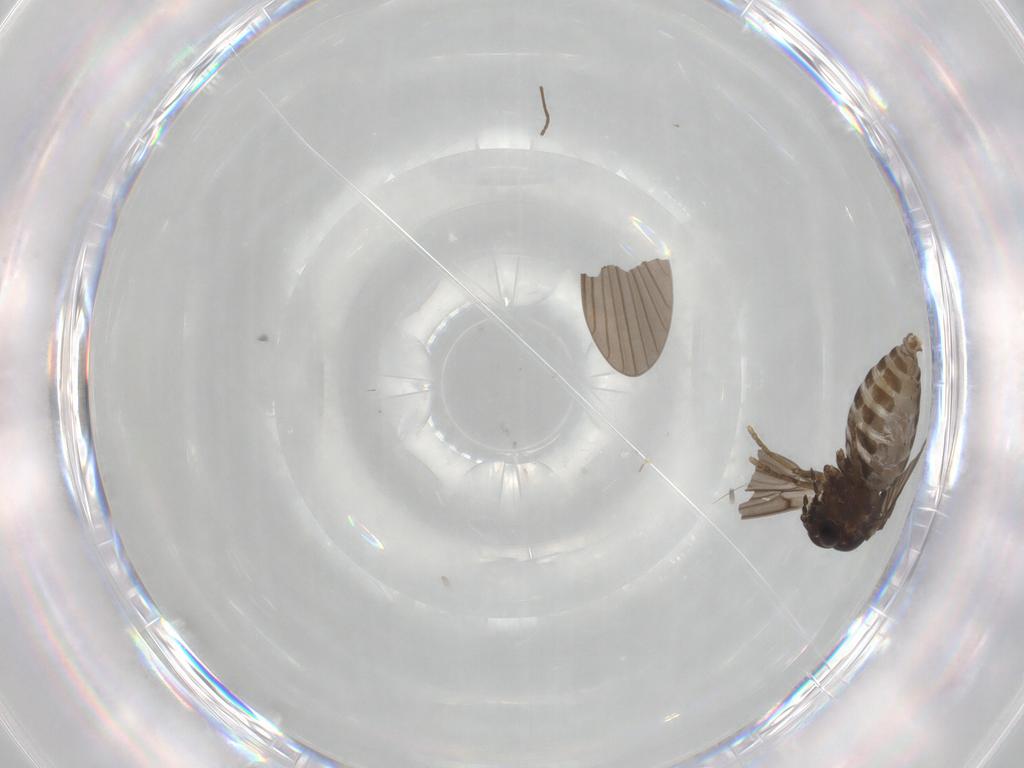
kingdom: Animalia
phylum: Arthropoda
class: Insecta
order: Diptera
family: Psychodidae
